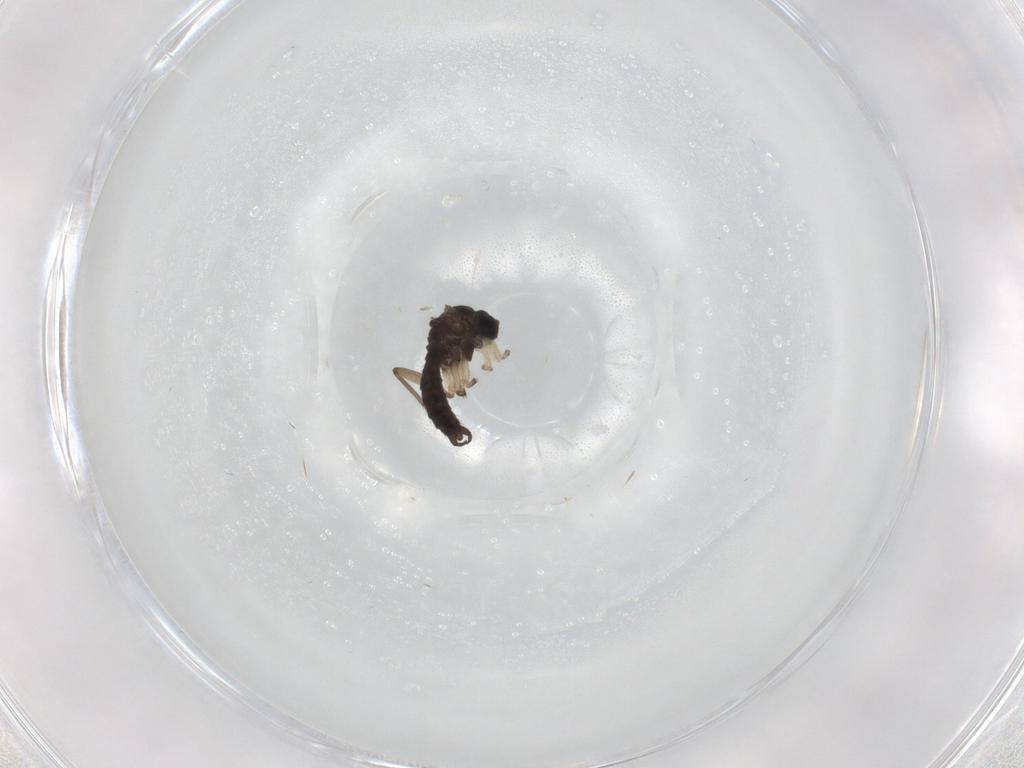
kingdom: Animalia
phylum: Arthropoda
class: Insecta
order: Diptera
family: Sciaridae
